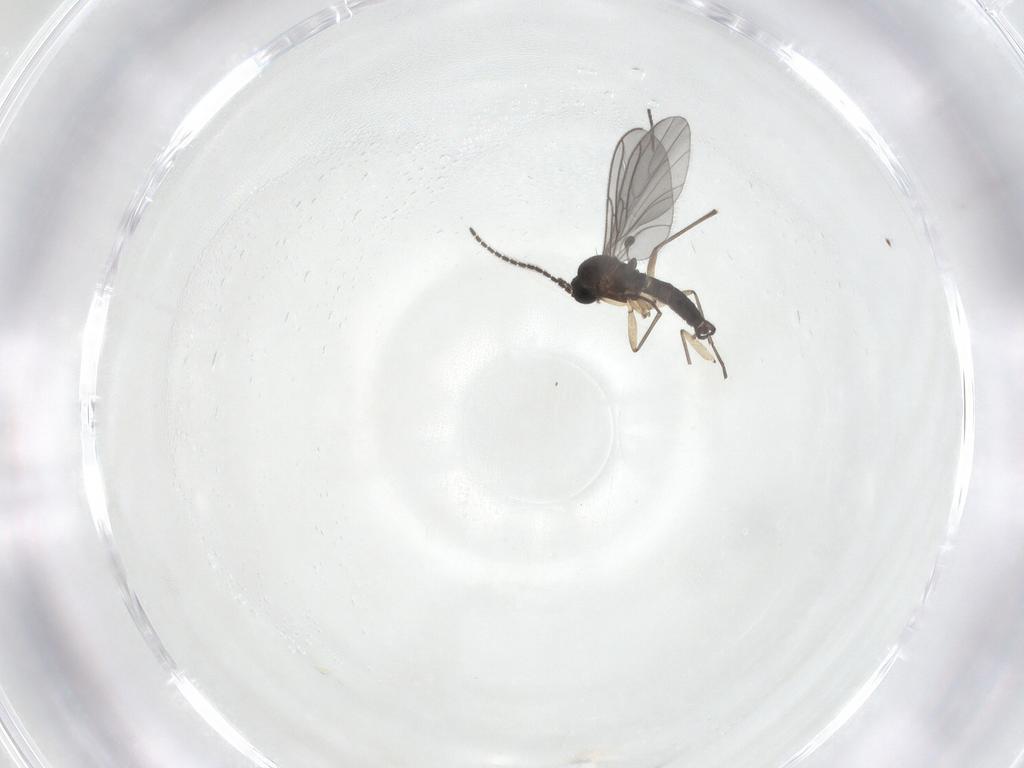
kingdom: Animalia
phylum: Arthropoda
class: Insecta
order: Diptera
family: Sciaridae
